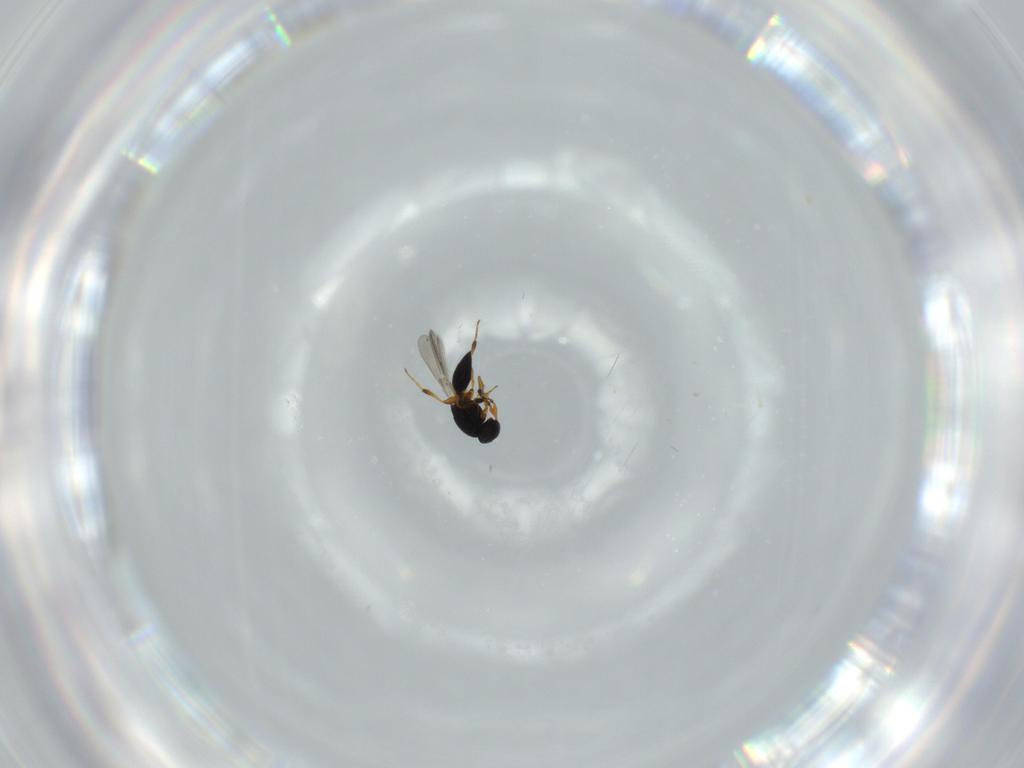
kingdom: Animalia
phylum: Arthropoda
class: Insecta
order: Hymenoptera
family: Platygastridae
